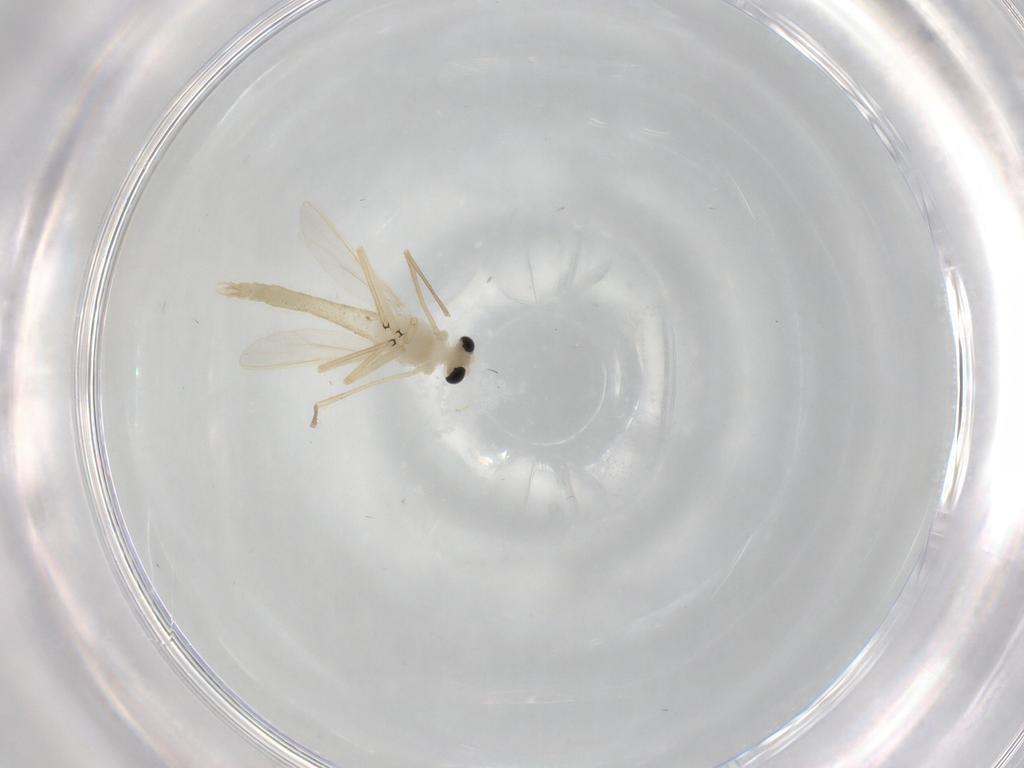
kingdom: Animalia
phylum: Arthropoda
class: Insecta
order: Diptera
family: Chironomidae
